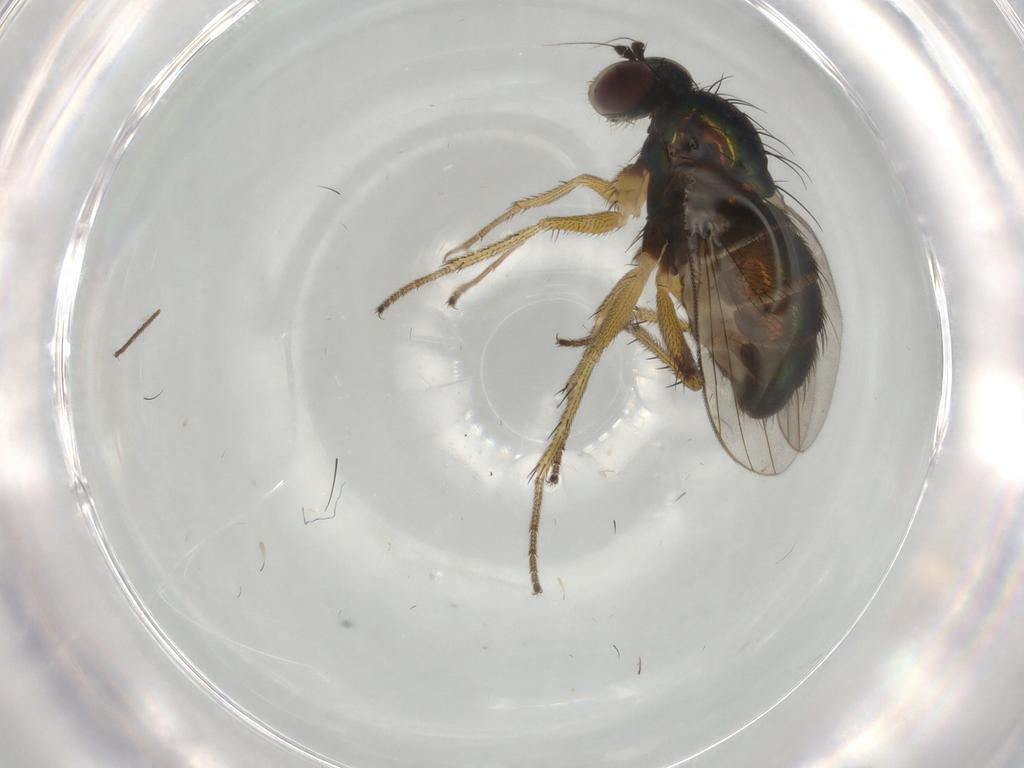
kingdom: Animalia
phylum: Arthropoda
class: Insecta
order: Diptera
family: Dolichopodidae
